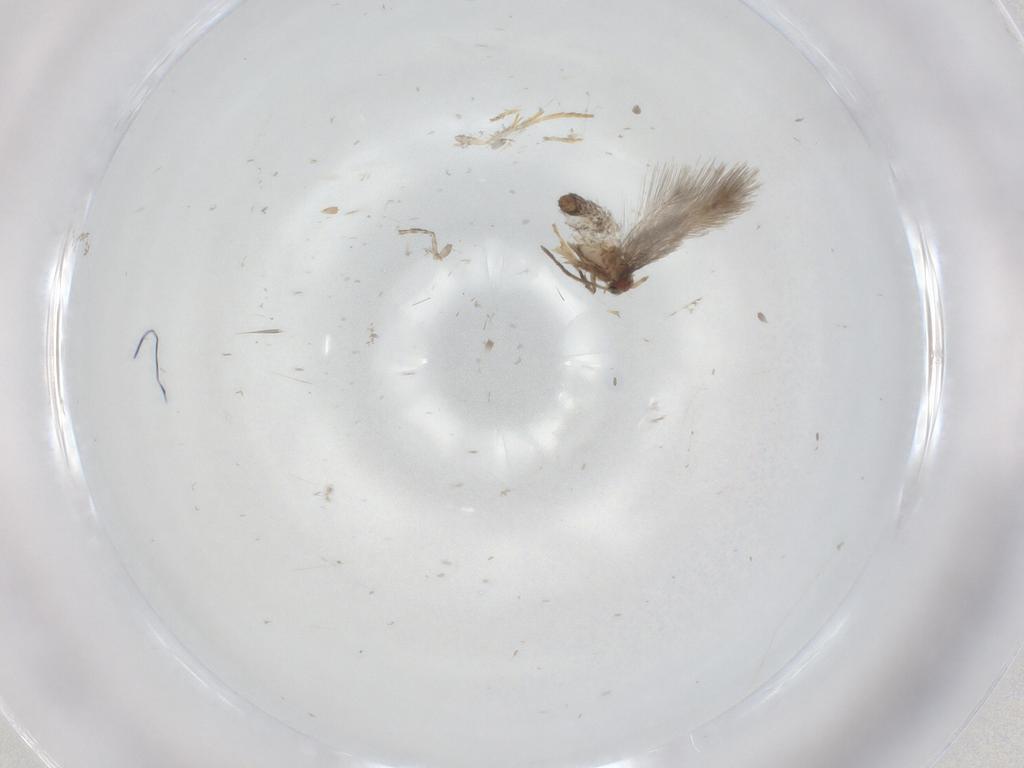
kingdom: Animalia
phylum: Arthropoda
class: Insecta
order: Lepidoptera
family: Nepticulidae
